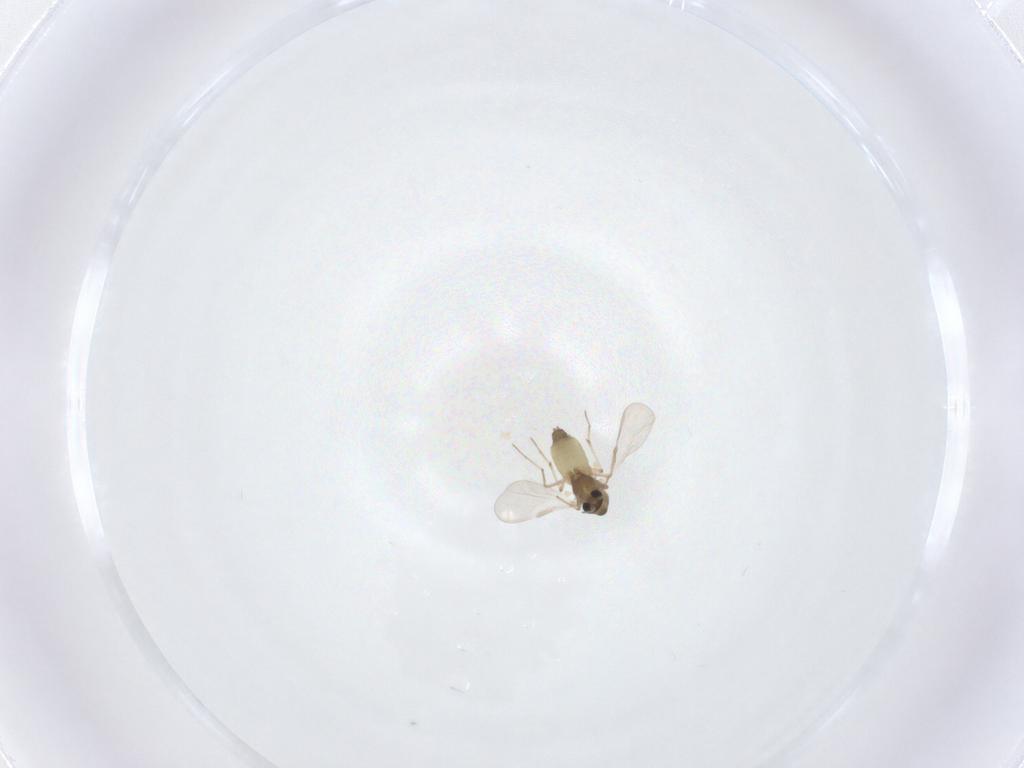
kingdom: Animalia
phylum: Arthropoda
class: Insecta
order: Diptera
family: Chironomidae
